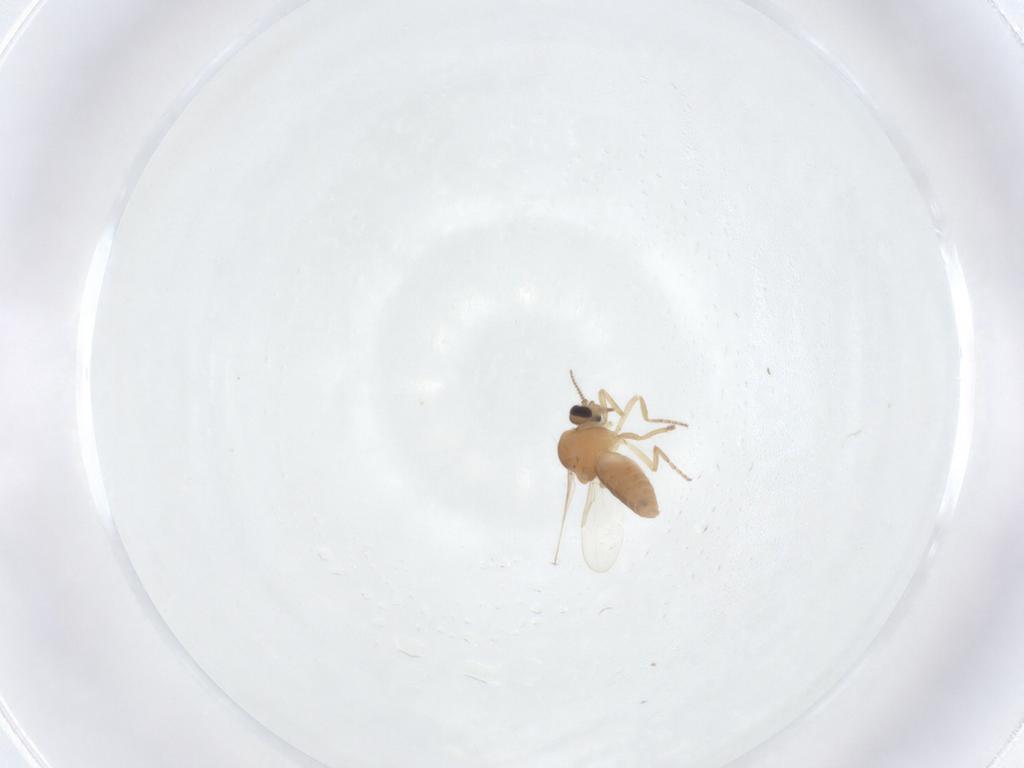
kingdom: Animalia
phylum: Arthropoda
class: Insecta
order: Diptera
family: Ceratopogonidae
